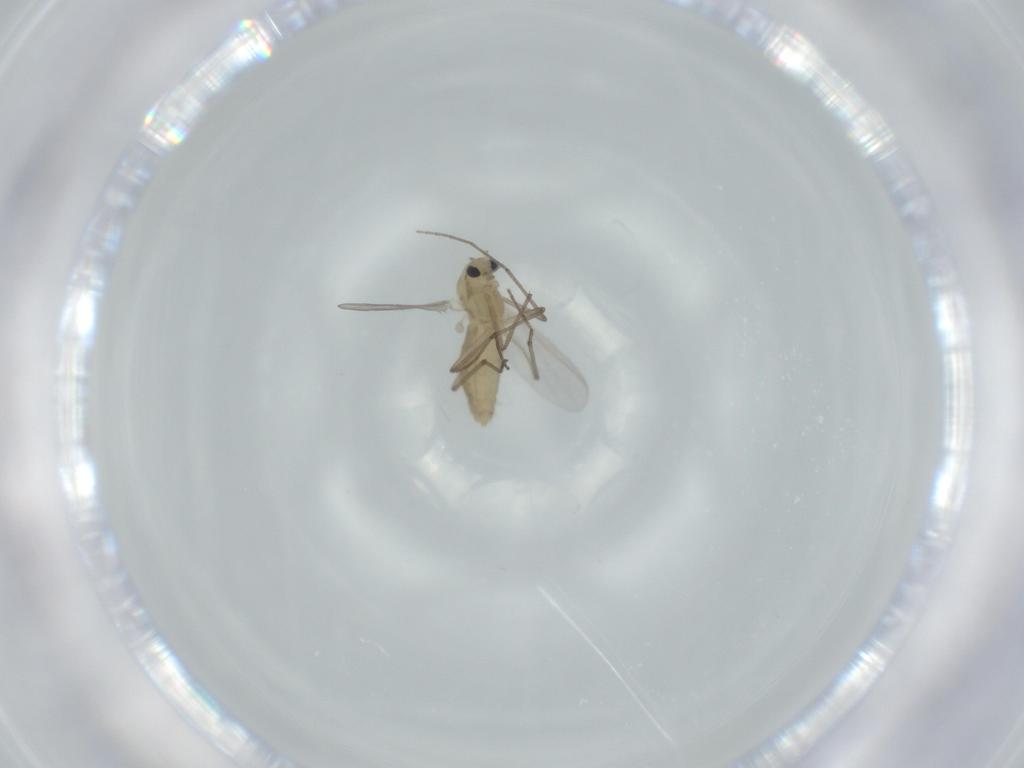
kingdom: Animalia
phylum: Arthropoda
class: Insecta
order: Diptera
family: Chironomidae
